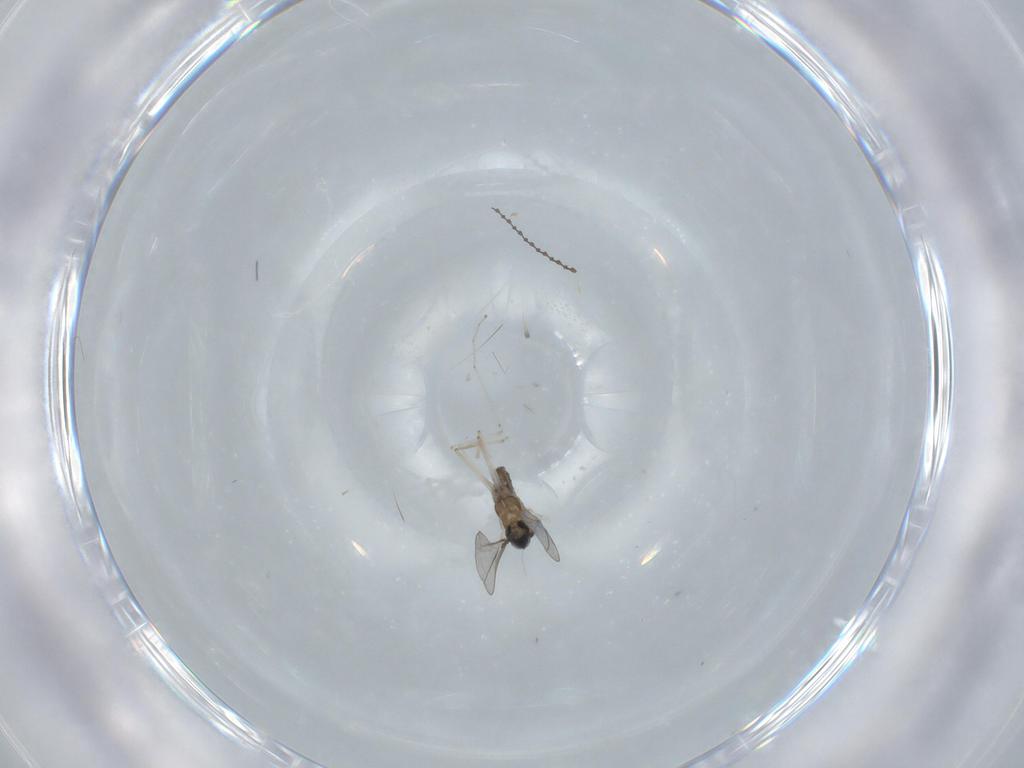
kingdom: Animalia
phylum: Arthropoda
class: Insecta
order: Diptera
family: Cecidomyiidae
